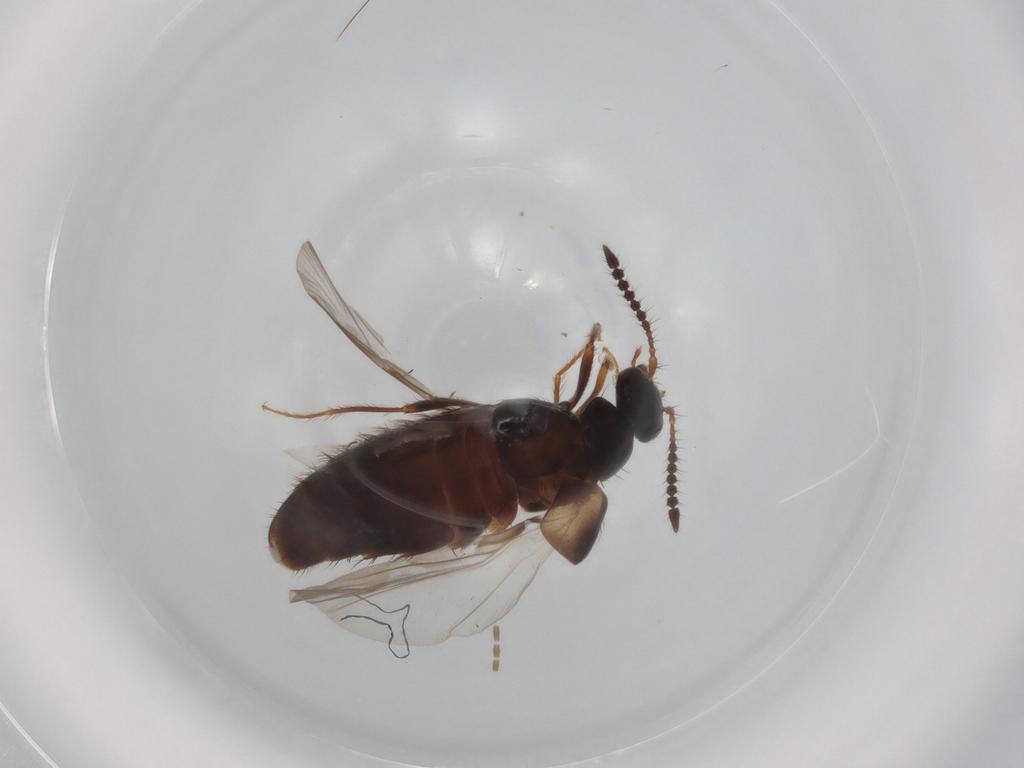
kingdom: Animalia
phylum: Arthropoda
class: Insecta
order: Coleoptera
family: Staphylinidae
